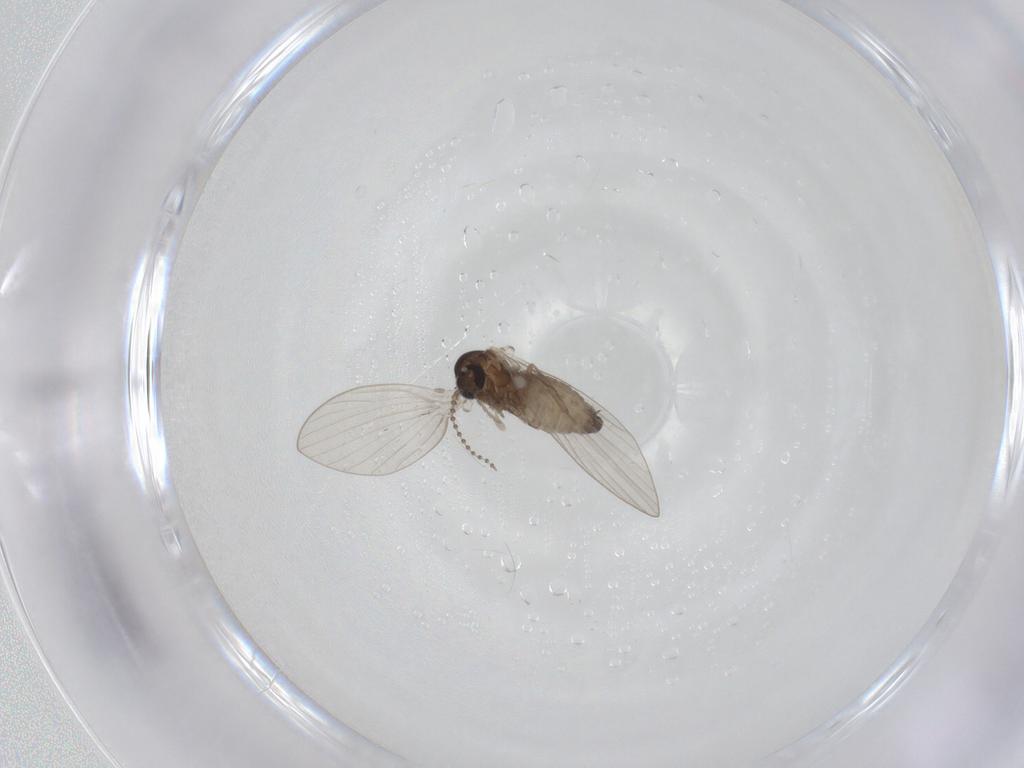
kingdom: Animalia
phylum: Arthropoda
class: Insecta
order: Diptera
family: Psychodidae
